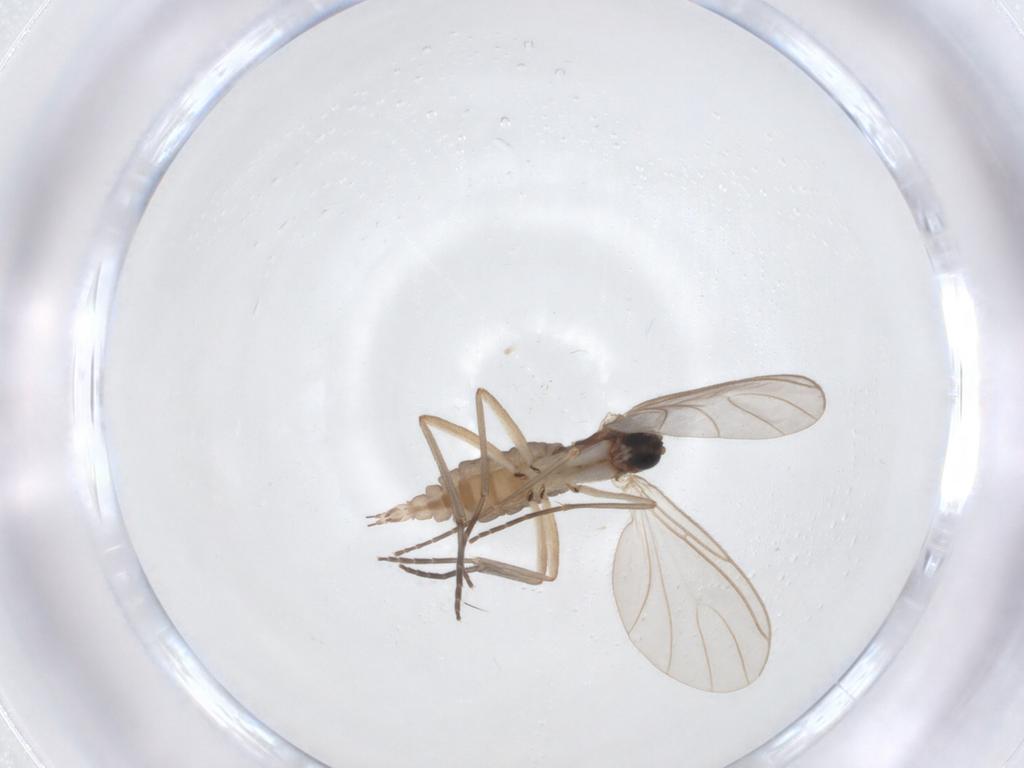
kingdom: Animalia
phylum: Arthropoda
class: Insecta
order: Diptera
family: Sciaridae
